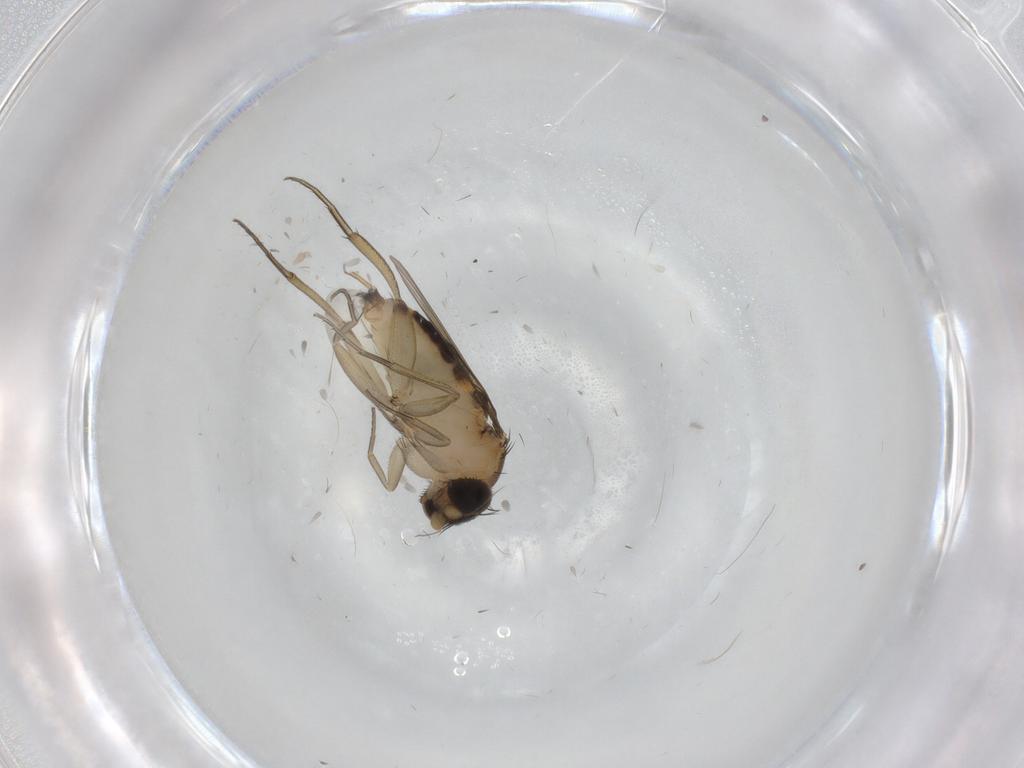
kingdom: Animalia
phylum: Arthropoda
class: Insecta
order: Diptera
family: Phoridae
